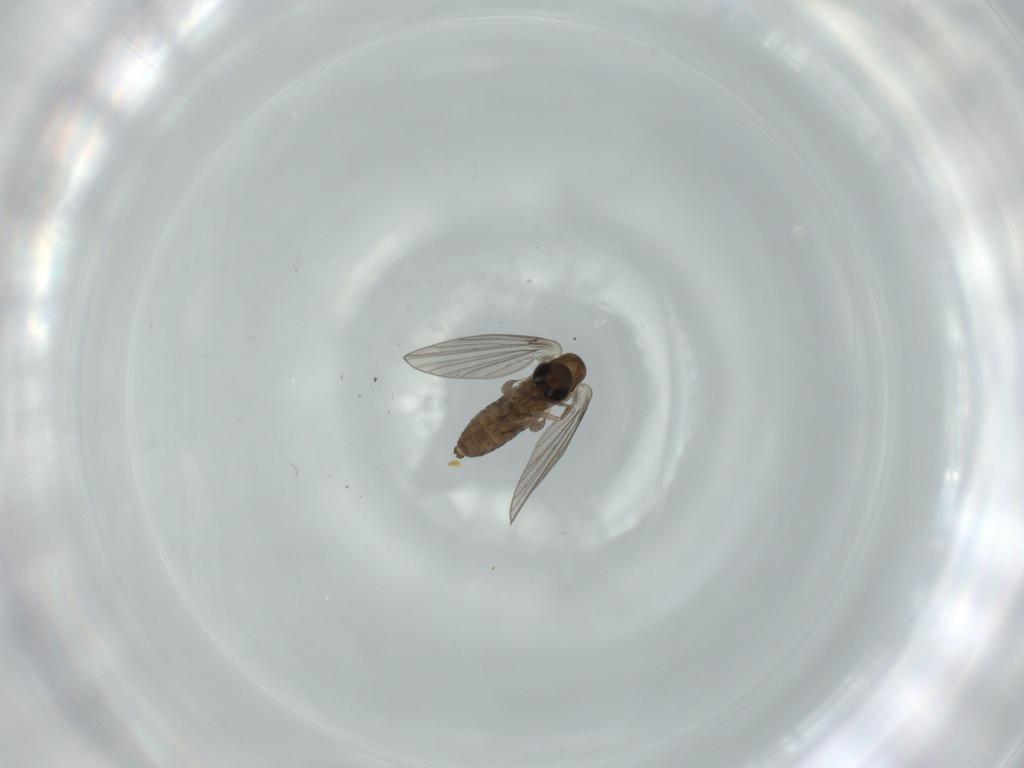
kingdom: Animalia
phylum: Arthropoda
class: Insecta
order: Diptera
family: Psychodidae
